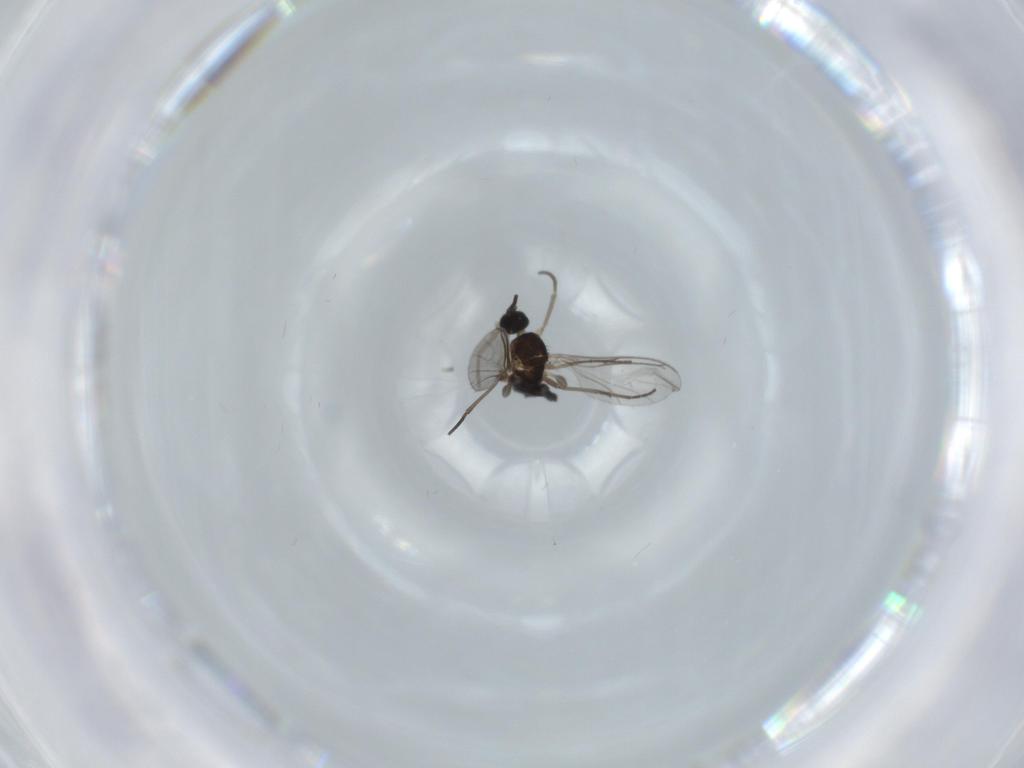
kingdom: Animalia
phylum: Arthropoda
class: Insecta
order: Diptera
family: Sciaridae
